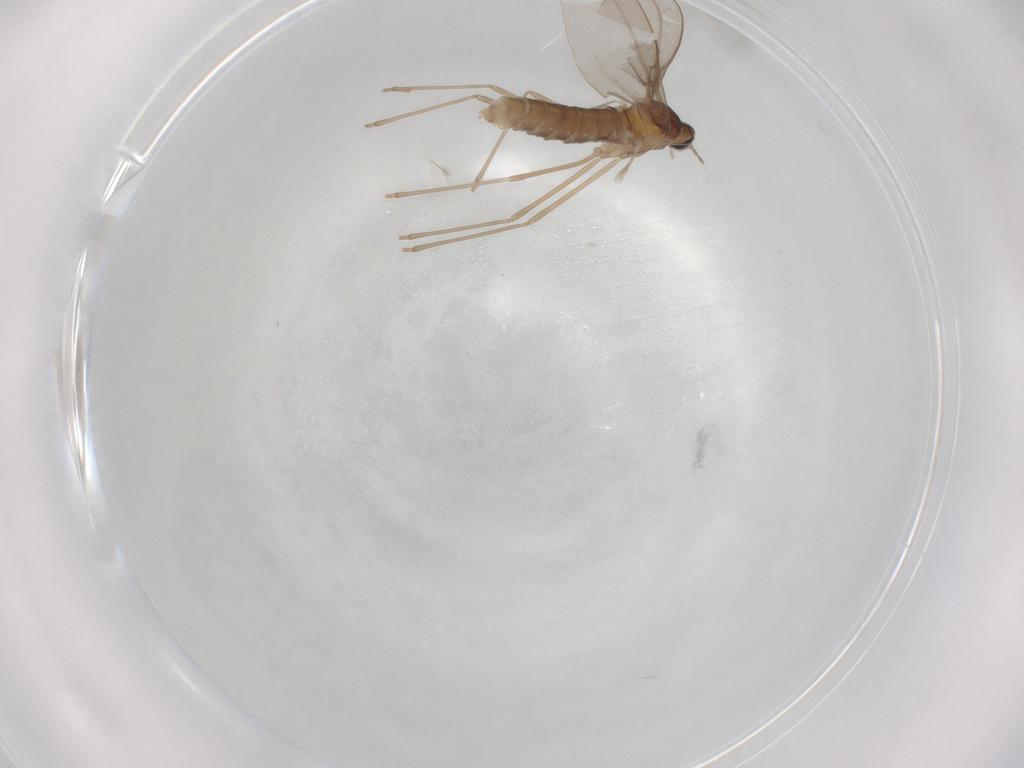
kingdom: Animalia
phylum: Arthropoda
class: Insecta
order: Diptera
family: Cecidomyiidae
